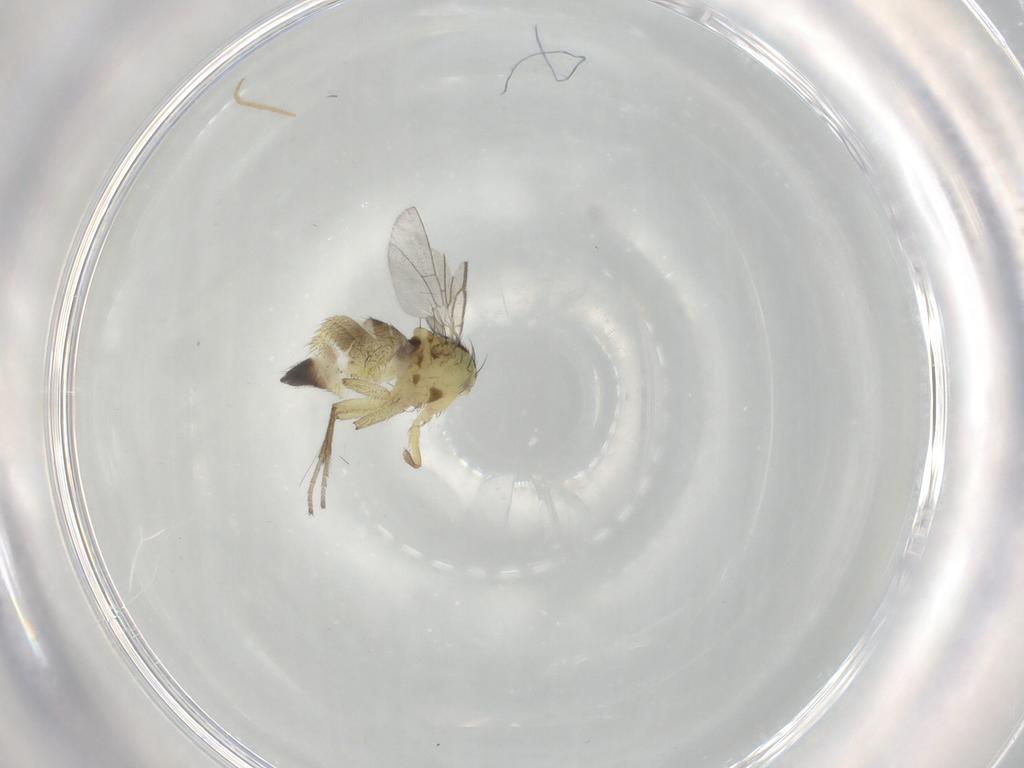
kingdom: Animalia
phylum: Arthropoda
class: Insecta
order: Diptera
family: Agromyzidae
